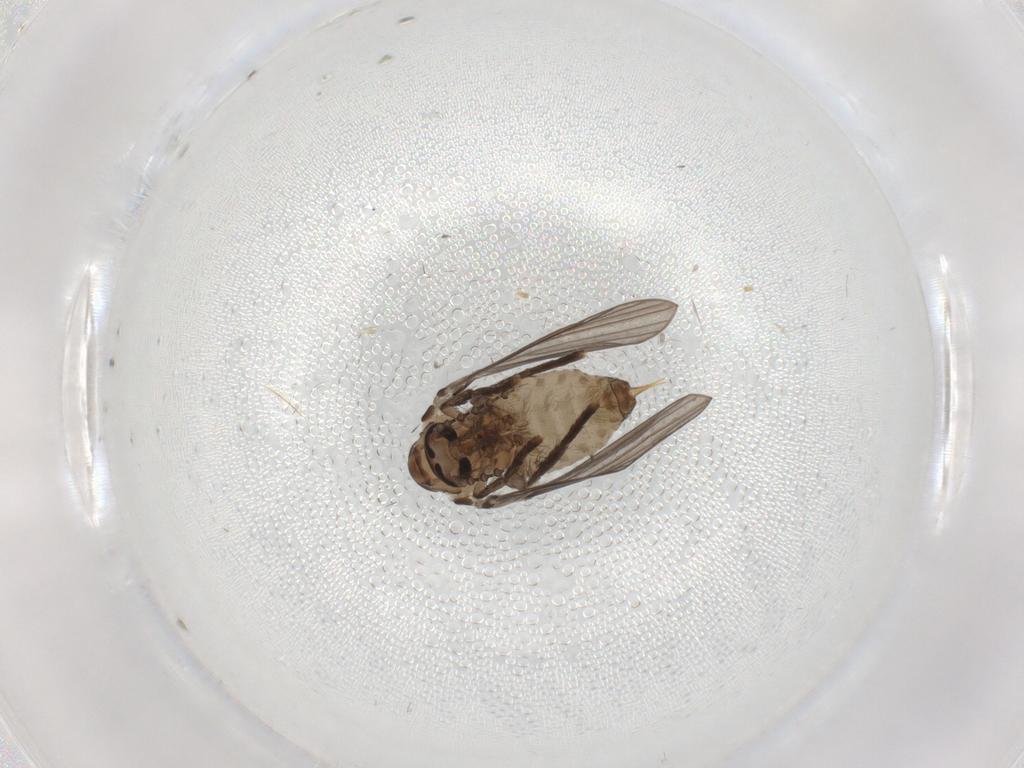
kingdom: Animalia
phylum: Arthropoda
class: Insecta
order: Diptera
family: Psychodidae
